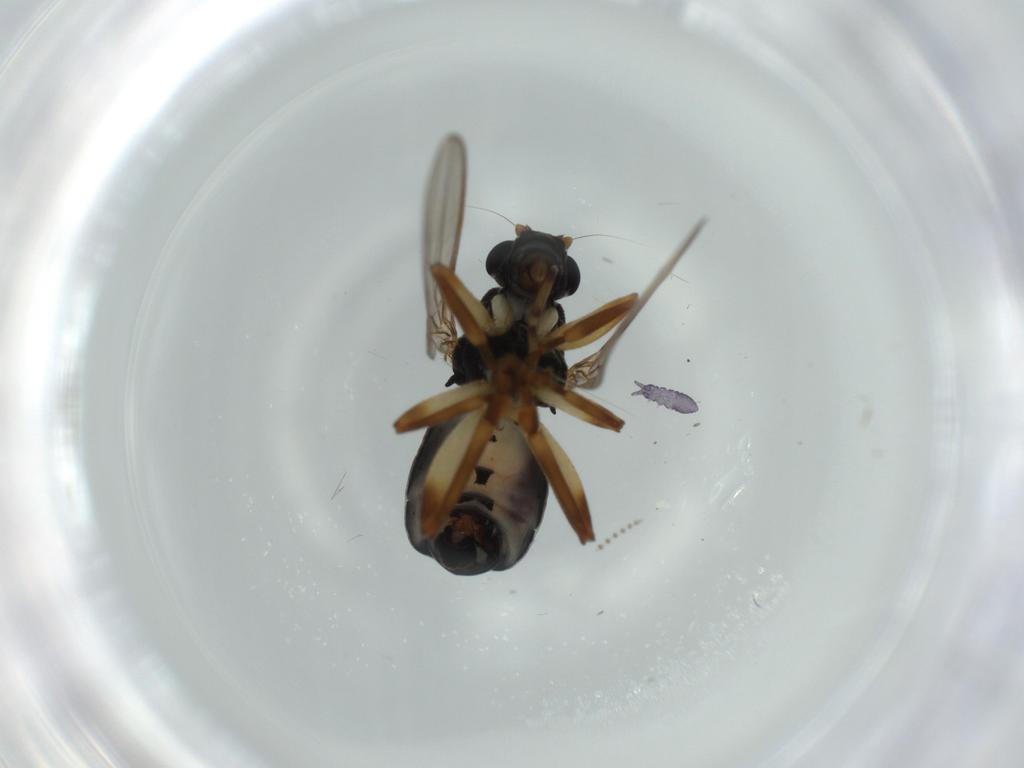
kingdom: Animalia
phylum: Arthropoda
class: Insecta
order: Diptera
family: Sphaeroceridae
